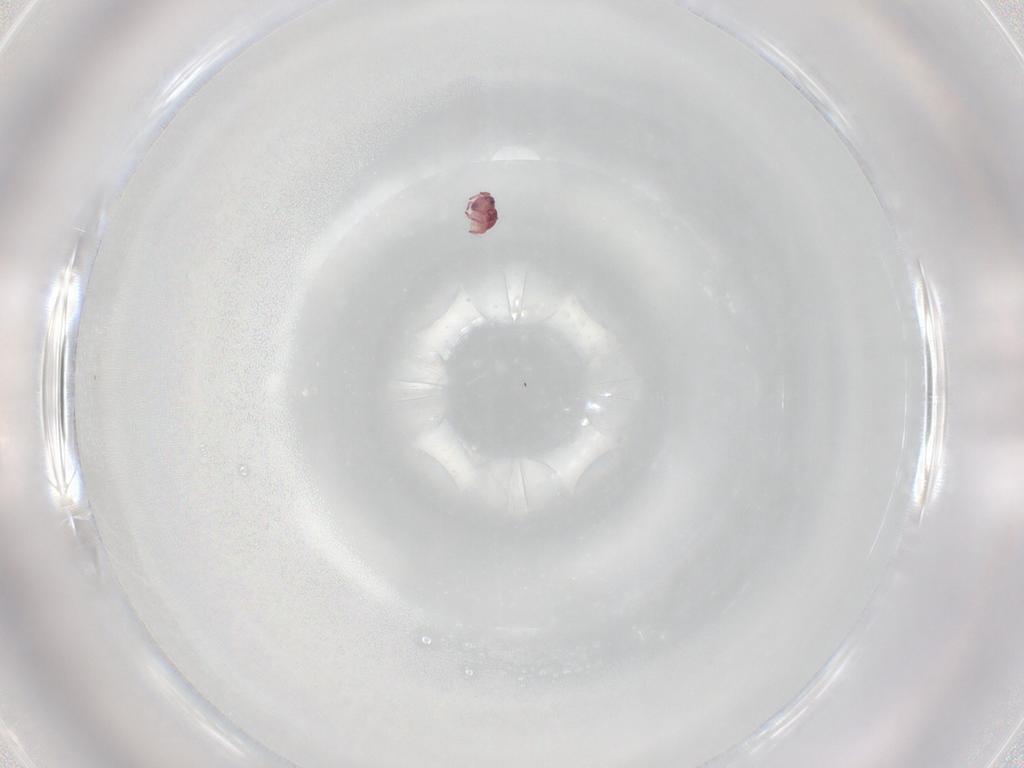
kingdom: Animalia
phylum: Arthropoda
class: Collembola
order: Symphypleona
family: Sminthurididae
